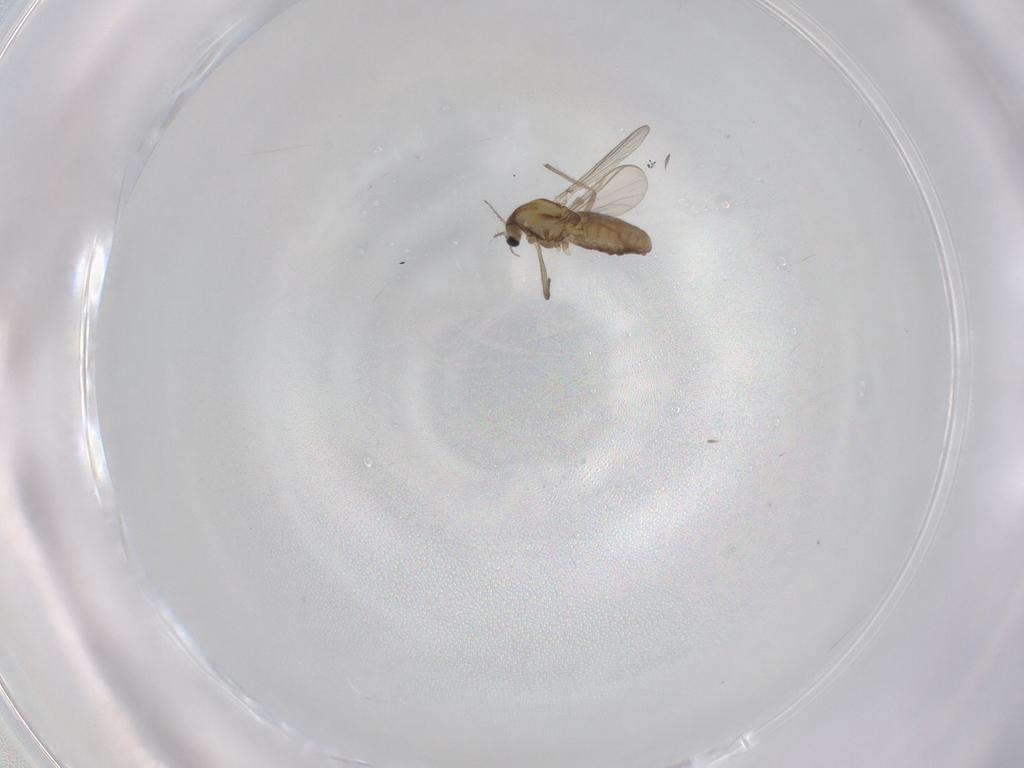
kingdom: Animalia
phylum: Arthropoda
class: Insecta
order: Diptera
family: Chironomidae
